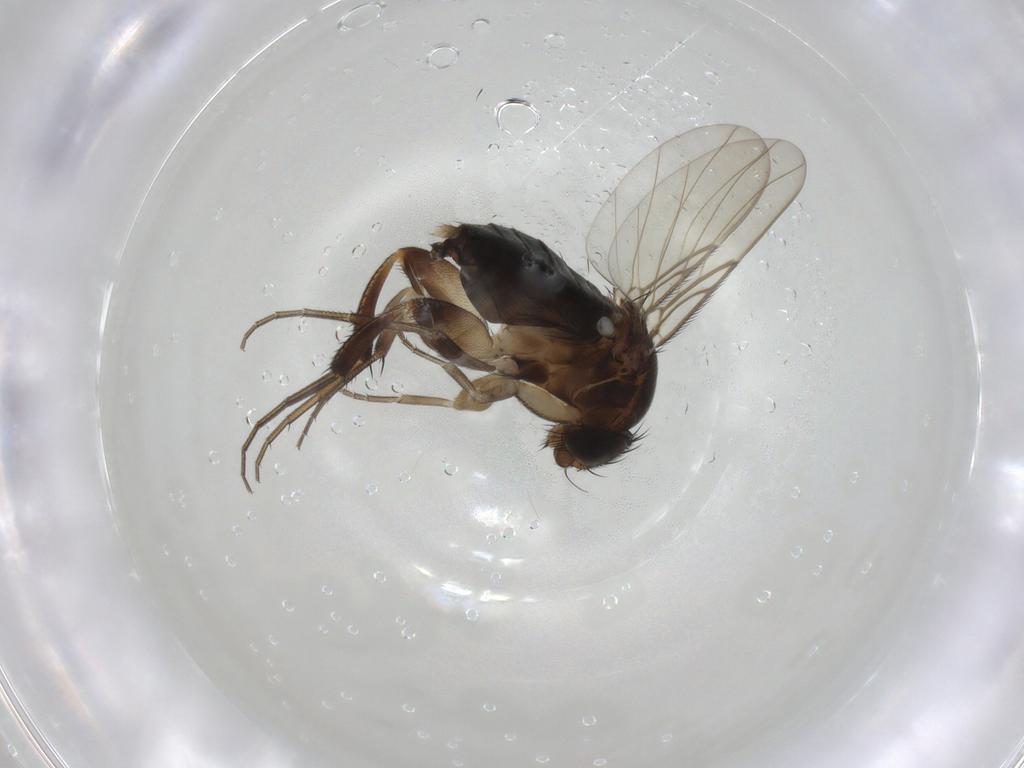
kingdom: Animalia
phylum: Arthropoda
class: Insecta
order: Diptera
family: Phoridae
